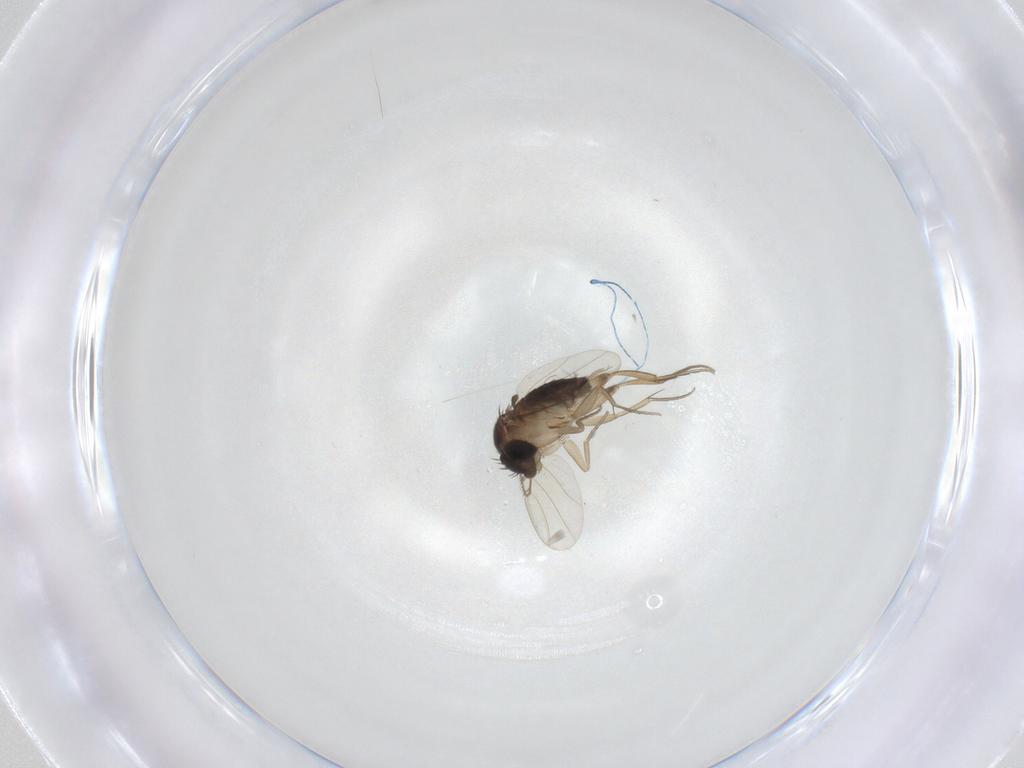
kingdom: Animalia
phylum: Arthropoda
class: Insecta
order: Diptera
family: Phoridae
